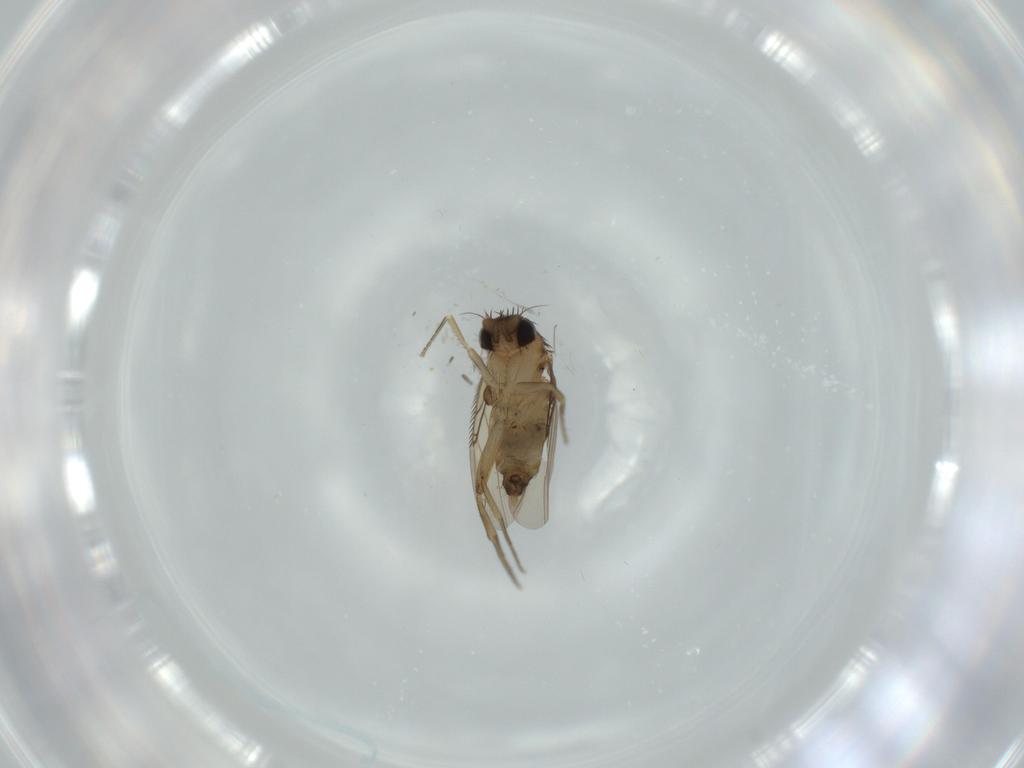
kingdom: Animalia
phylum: Arthropoda
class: Insecta
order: Diptera
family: Phoridae
